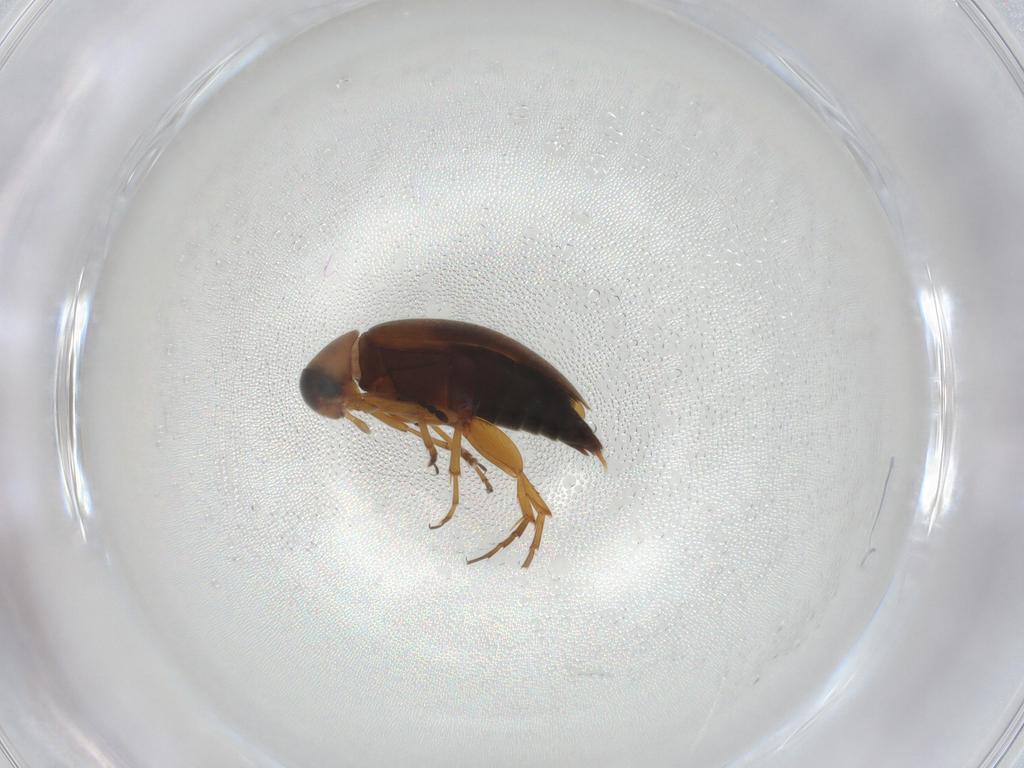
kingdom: Animalia
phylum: Arthropoda
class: Insecta
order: Coleoptera
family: Scraptiidae
